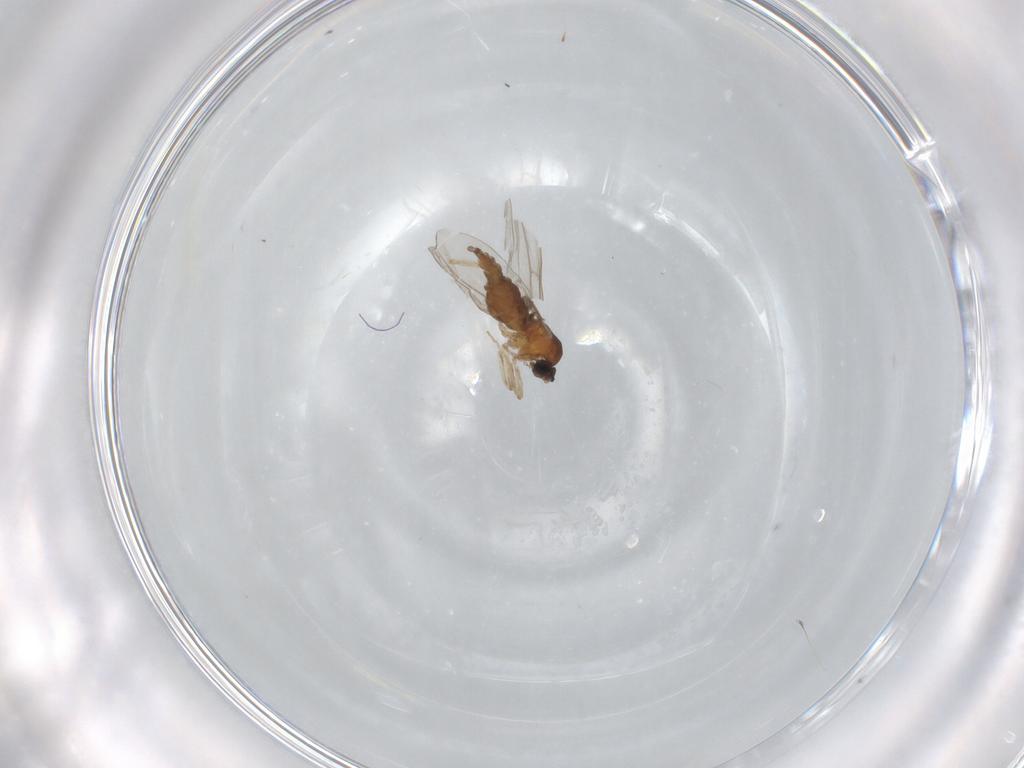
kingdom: Animalia
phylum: Arthropoda
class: Insecta
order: Diptera
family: Cecidomyiidae
